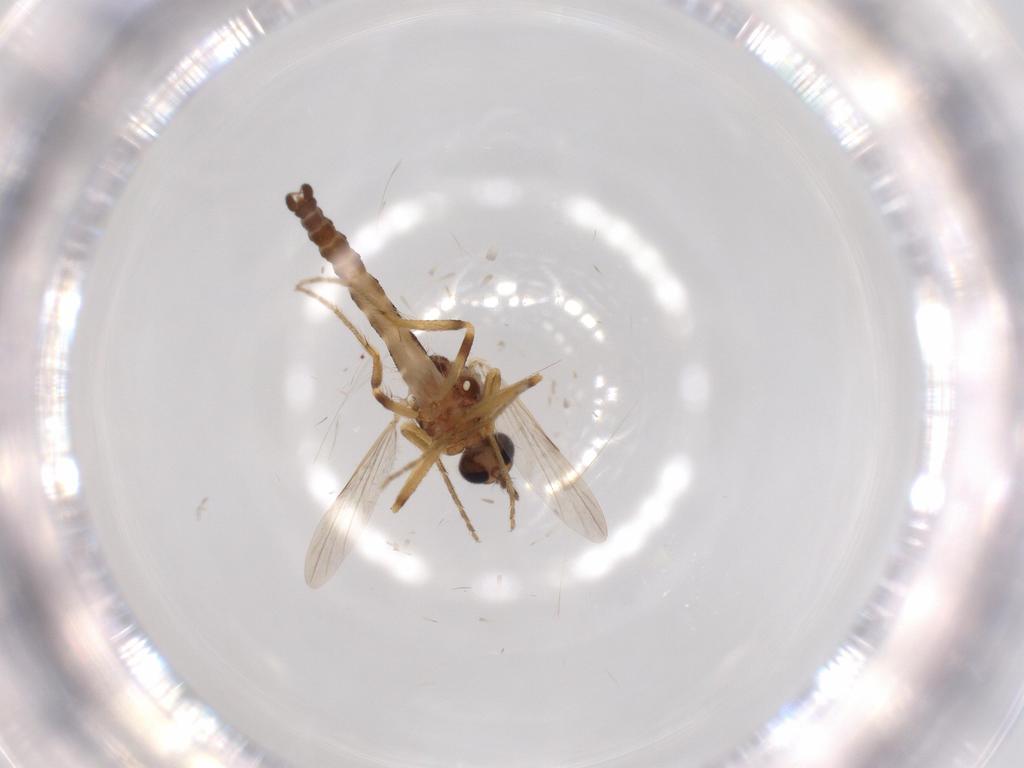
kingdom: Animalia
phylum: Arthropoda
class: Insecta
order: Diptera
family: Ceratopogonidae
